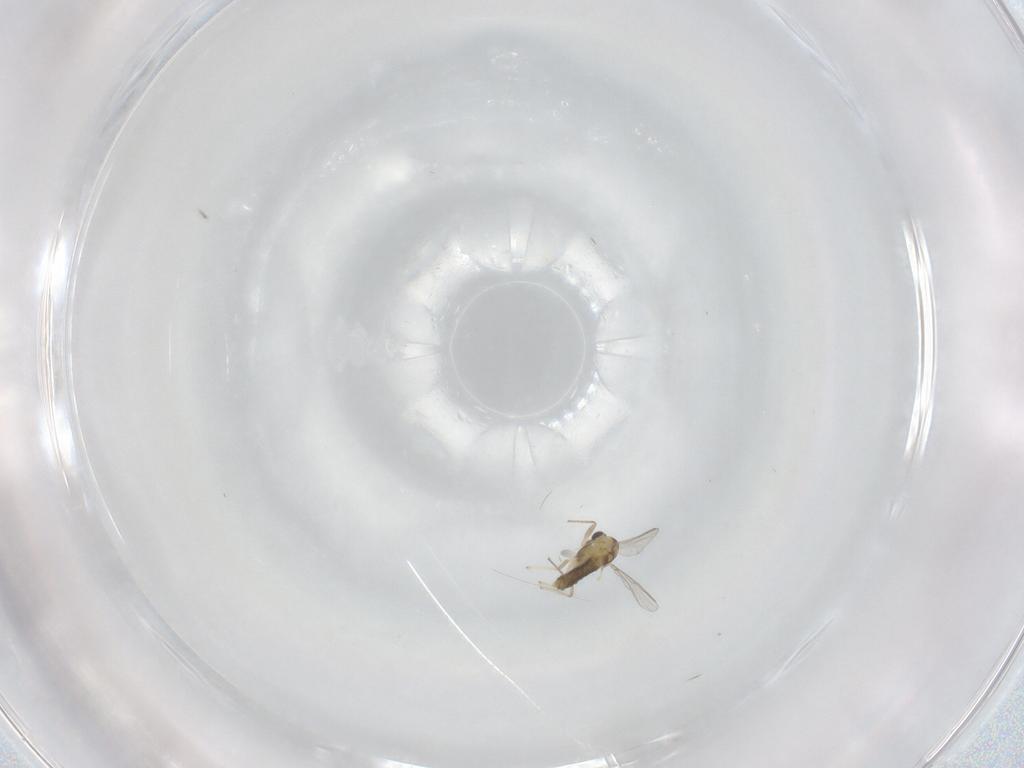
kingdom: Animalia
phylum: Arthropoda
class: Insecta
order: Diptera
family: Chironomidae
